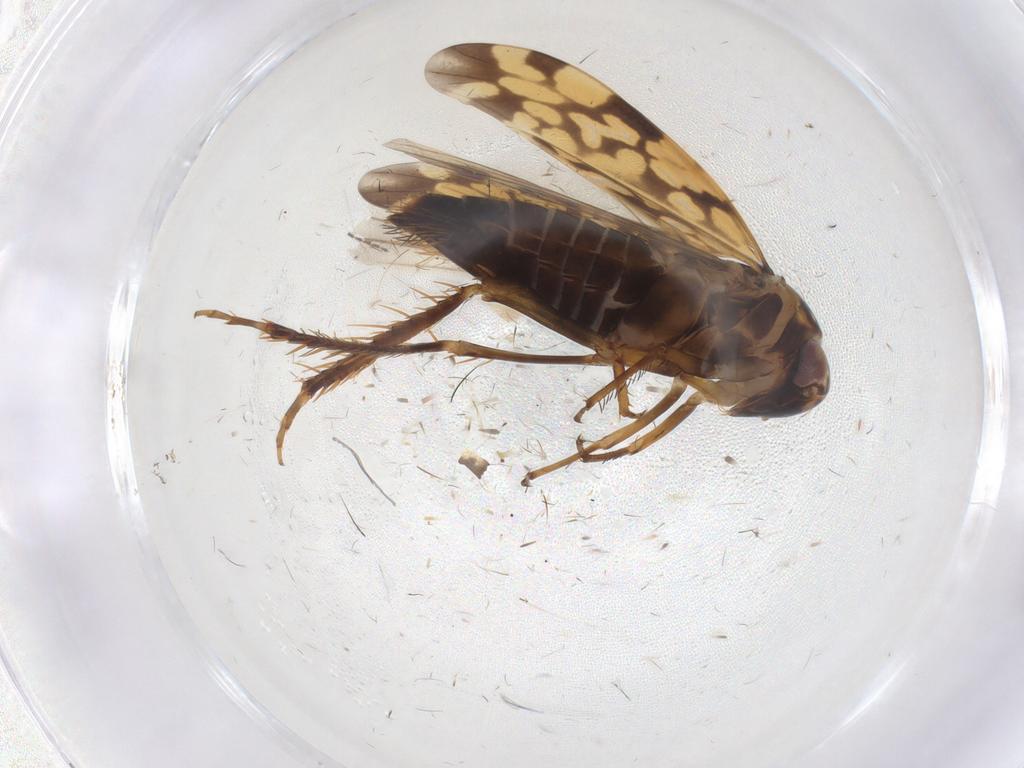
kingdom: Animalia
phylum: Arthropoda
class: Insecta
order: Hemiptera
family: Cicadellidae
